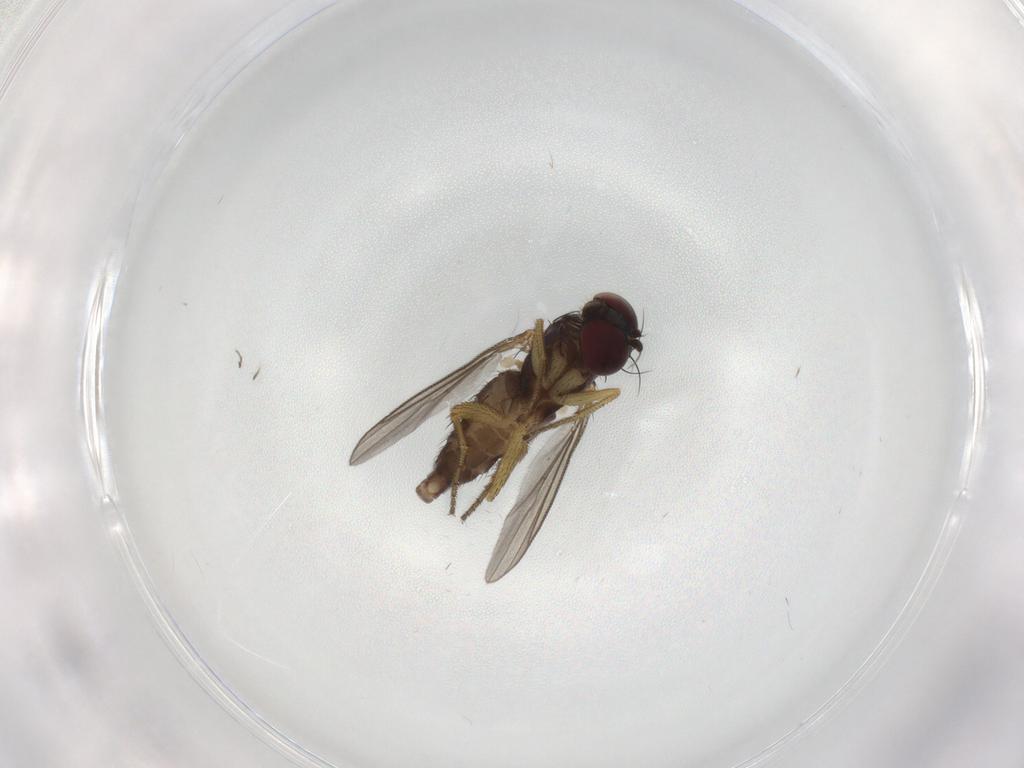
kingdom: Animalia
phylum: Arthropoda
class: Insecta
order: Diptera
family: Dolichopodidae
